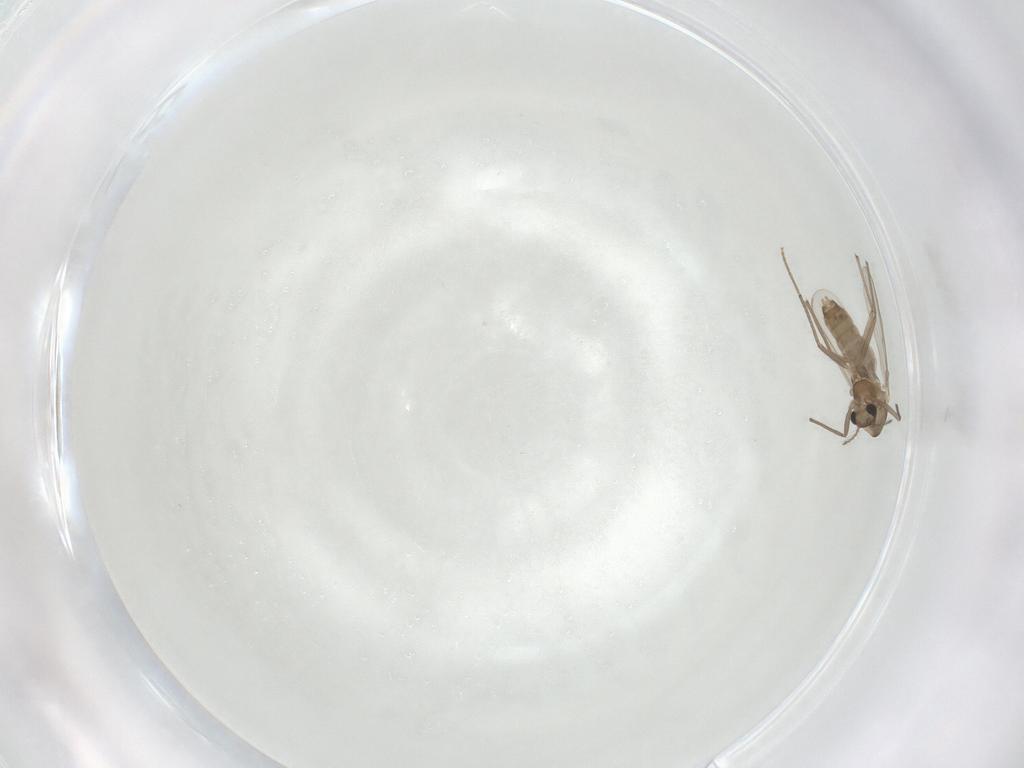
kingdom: Animalia
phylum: Arthropoda
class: Insecta
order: Diptera
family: Chironomidae
